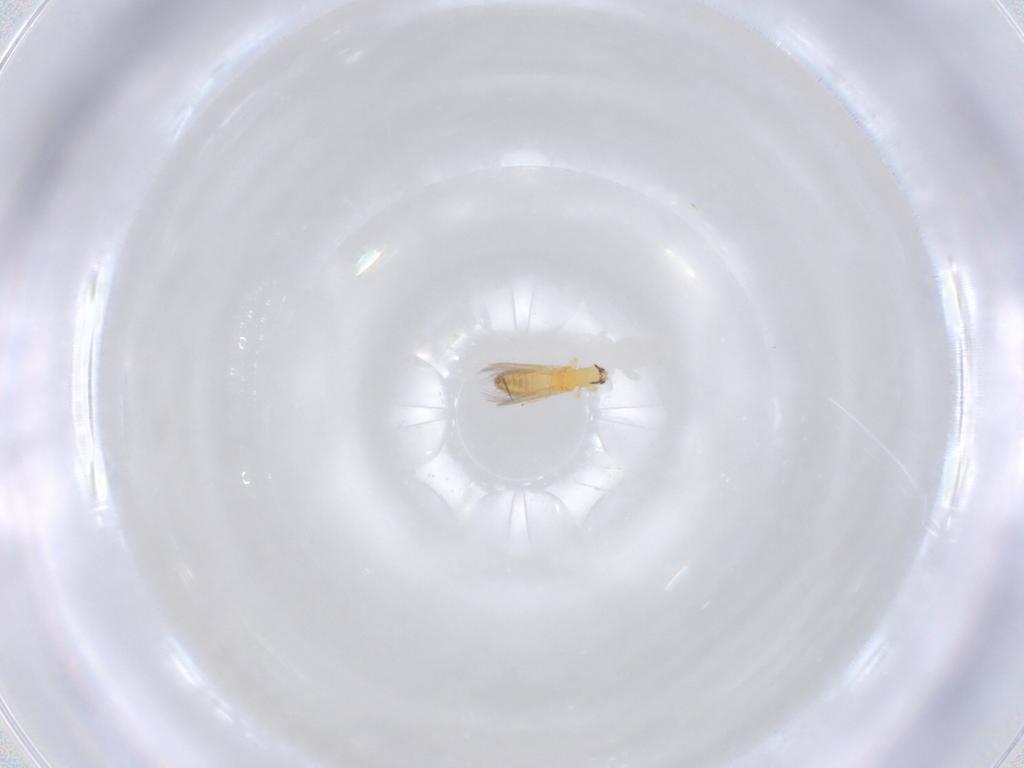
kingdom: Animalia
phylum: Arthropoda
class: Insecta
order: Thysanoptera
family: Thripidae
